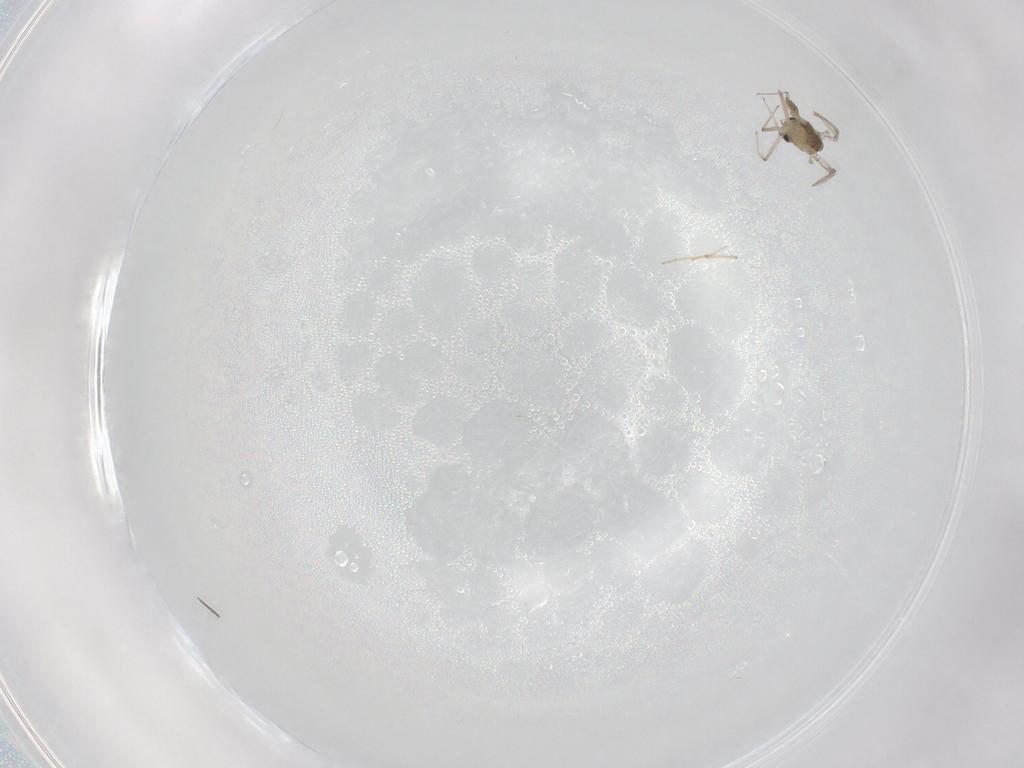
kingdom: Animalia
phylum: Arthropoda
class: Insecta
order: Diptera
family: Chironomidae
